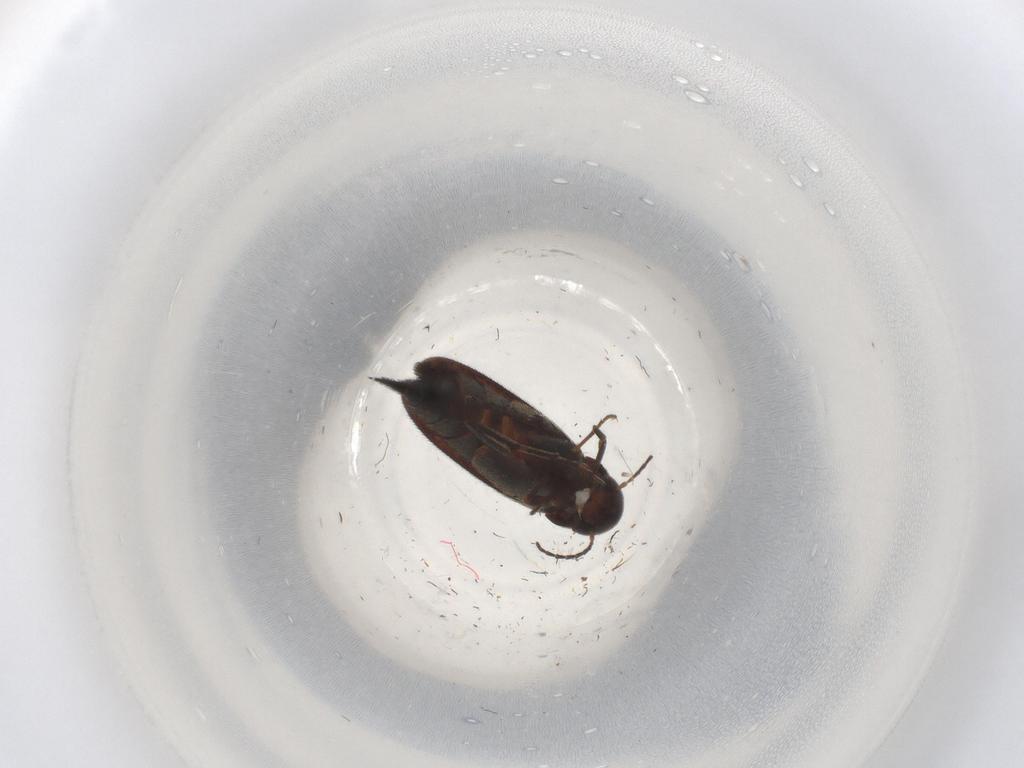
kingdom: Animalia
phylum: Arthropoda
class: Insecta
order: Coleoptera
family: Mordellidae
